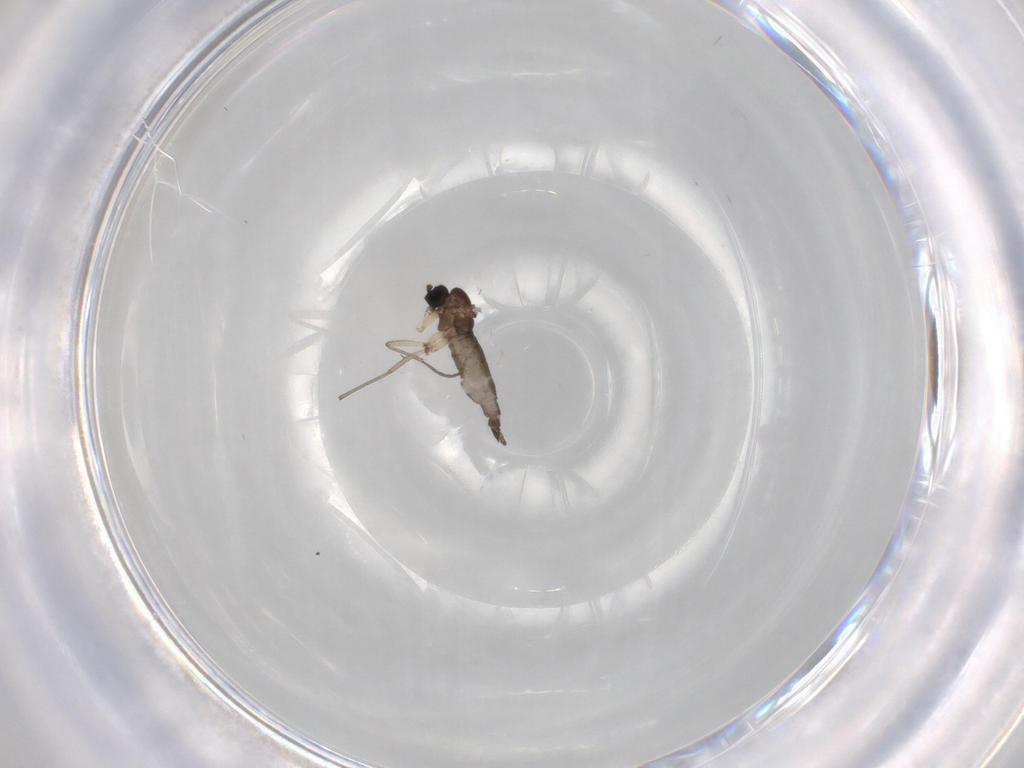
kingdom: Animalia
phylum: Arthropoda
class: Insecta
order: Diptera
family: Sciaridae
